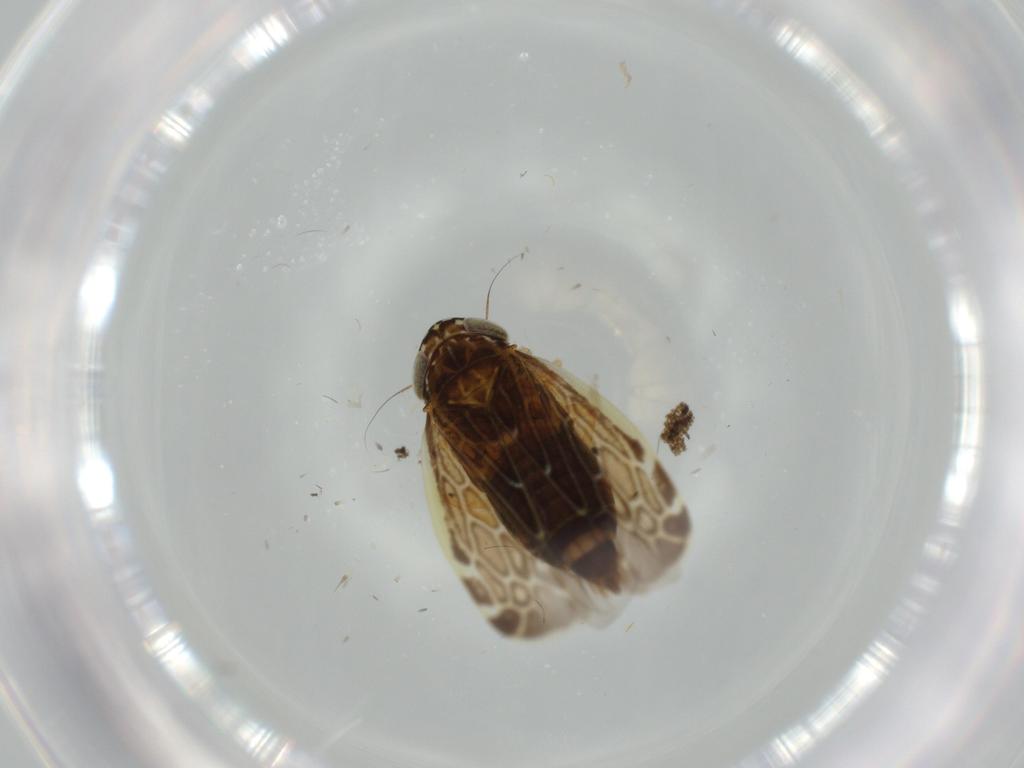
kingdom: Animalia
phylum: Arthropoda
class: Insecta
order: Hemiptera
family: Cicadellidae
